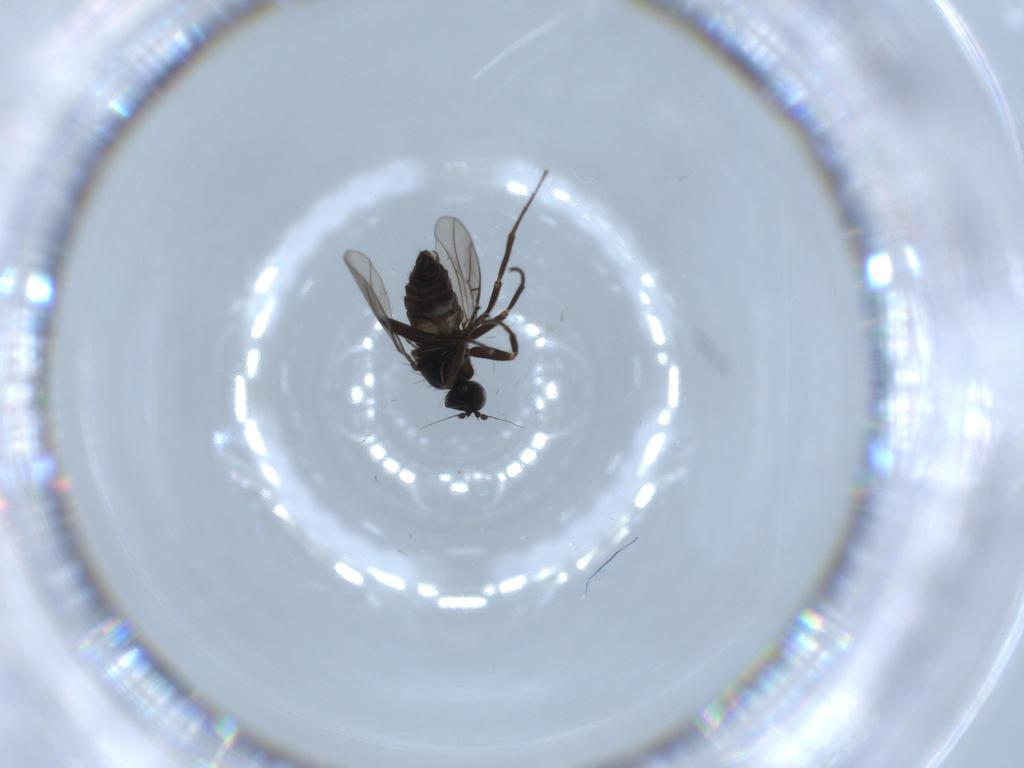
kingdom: Animalia
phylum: Arthropoda
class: Insecta
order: Diptera
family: Hybotidae
